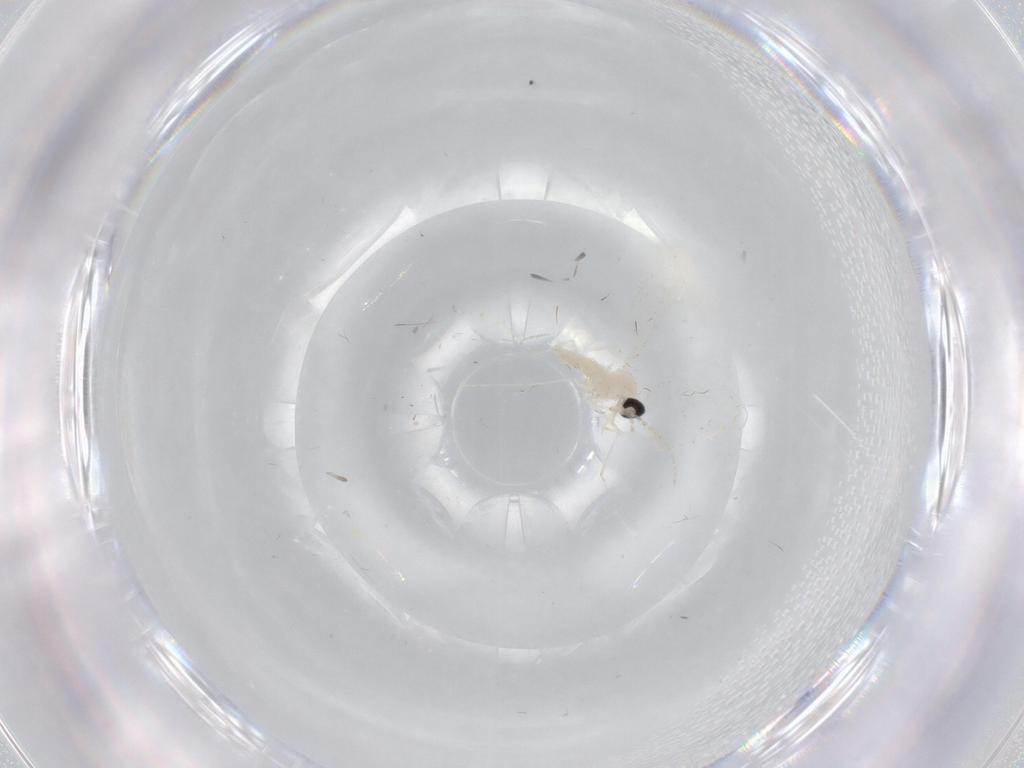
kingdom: Animalia
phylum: Arthropoda
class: Insecta
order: Diptera
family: Cecidomyiidae
